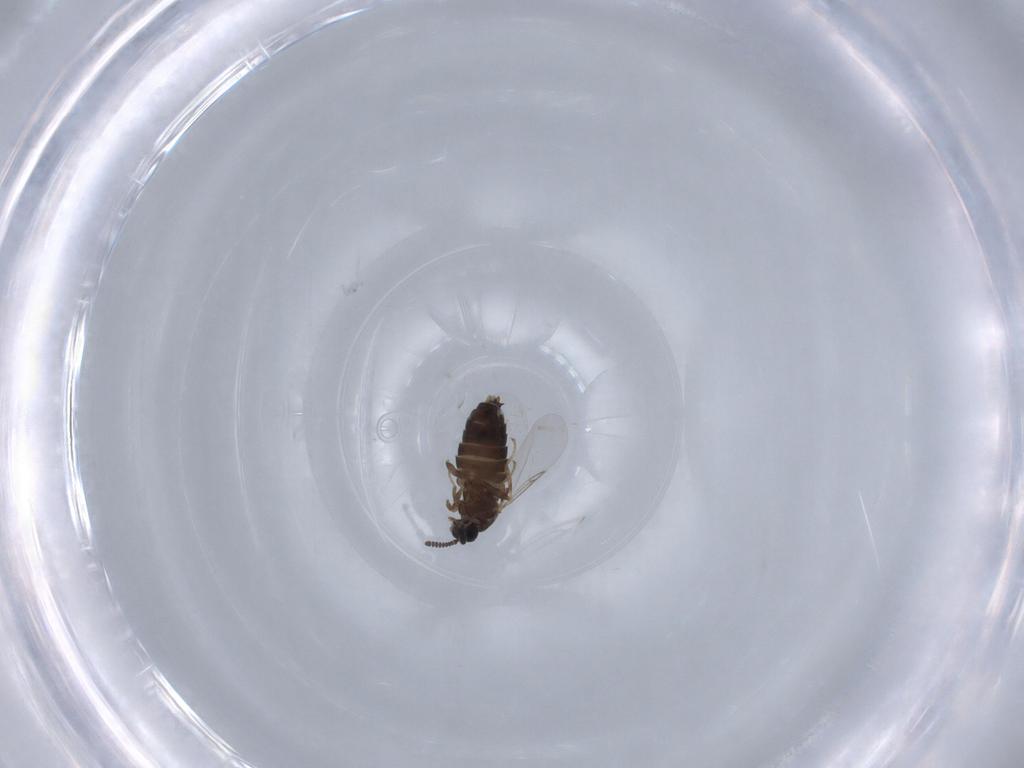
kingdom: Animalia
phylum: Arthropoda
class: Insecta
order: Diptera
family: Scatopsidae
